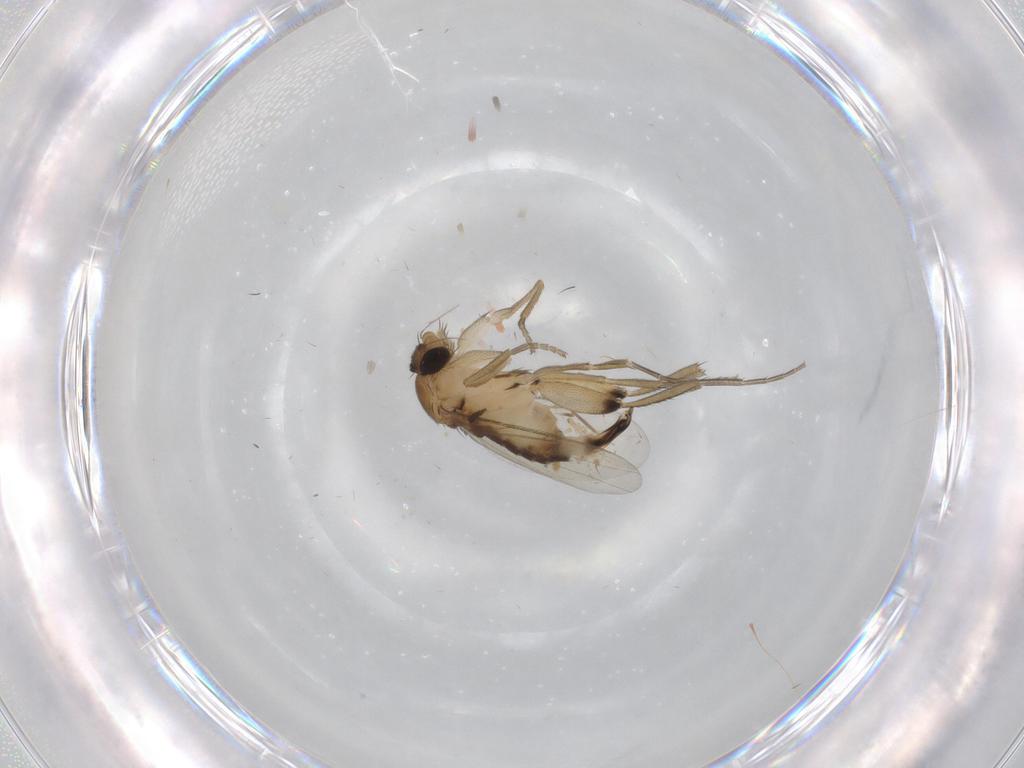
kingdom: Animalia
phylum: Arthropoda
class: Insecta
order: Diptera
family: Phoridae
